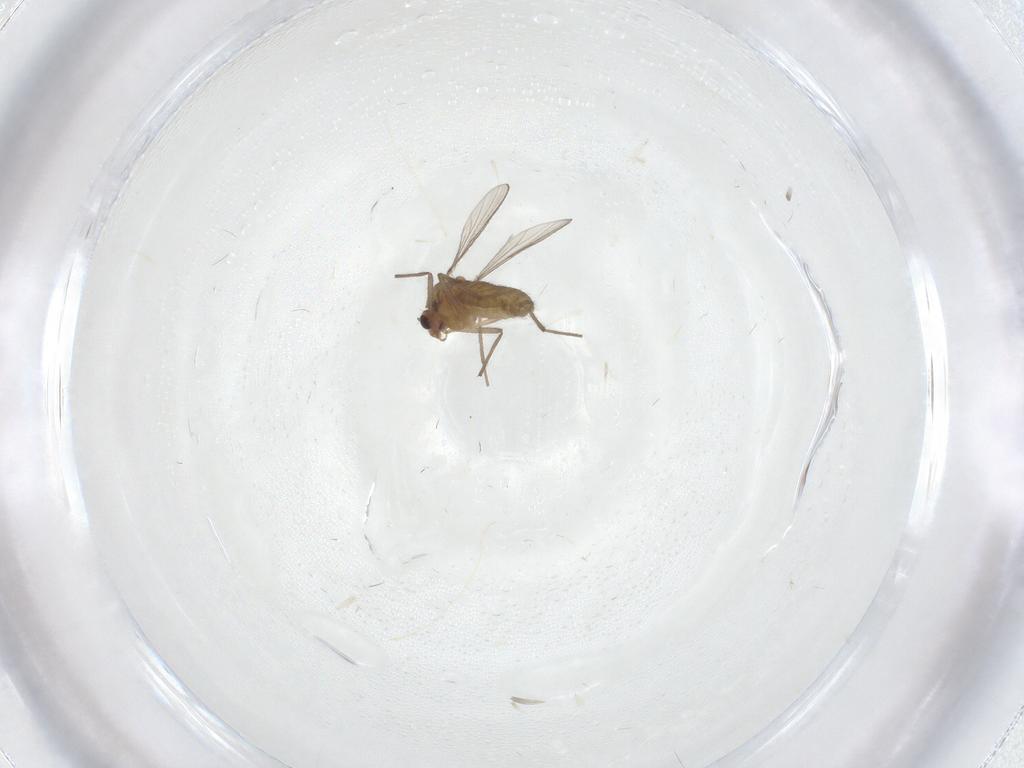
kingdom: Animalia
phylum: Arthropoda
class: Insecta
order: Diptera
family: Chironomidae
